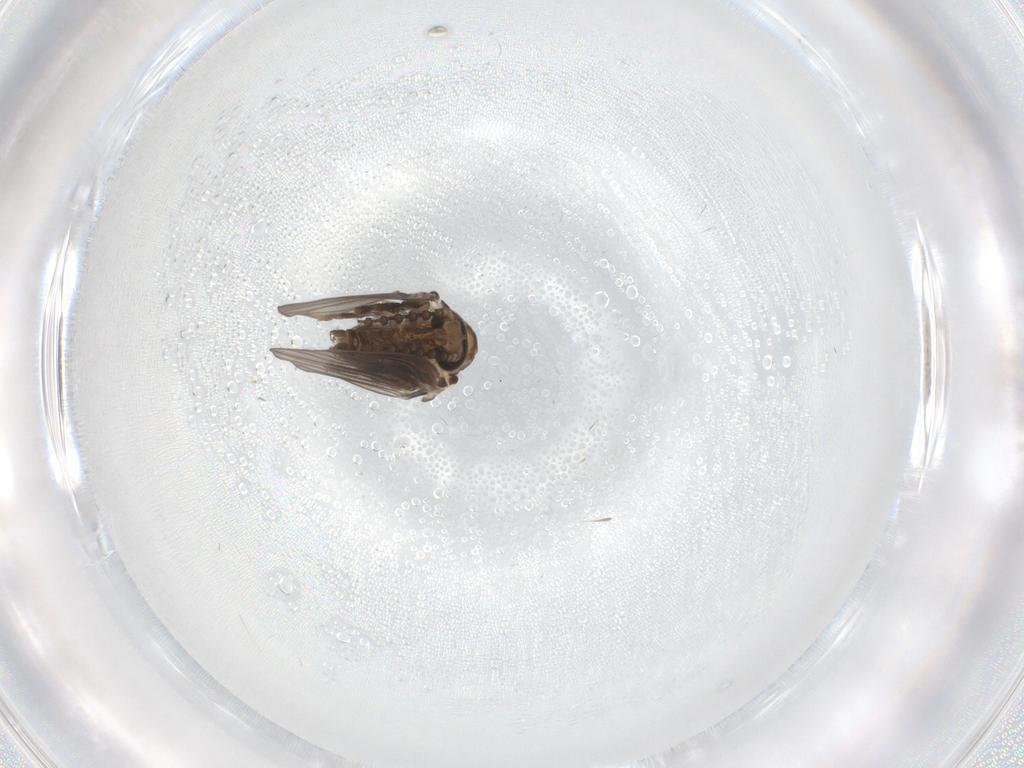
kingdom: Animalia
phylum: Arthropoda
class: Insecta
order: Diptera
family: Psychodidae
